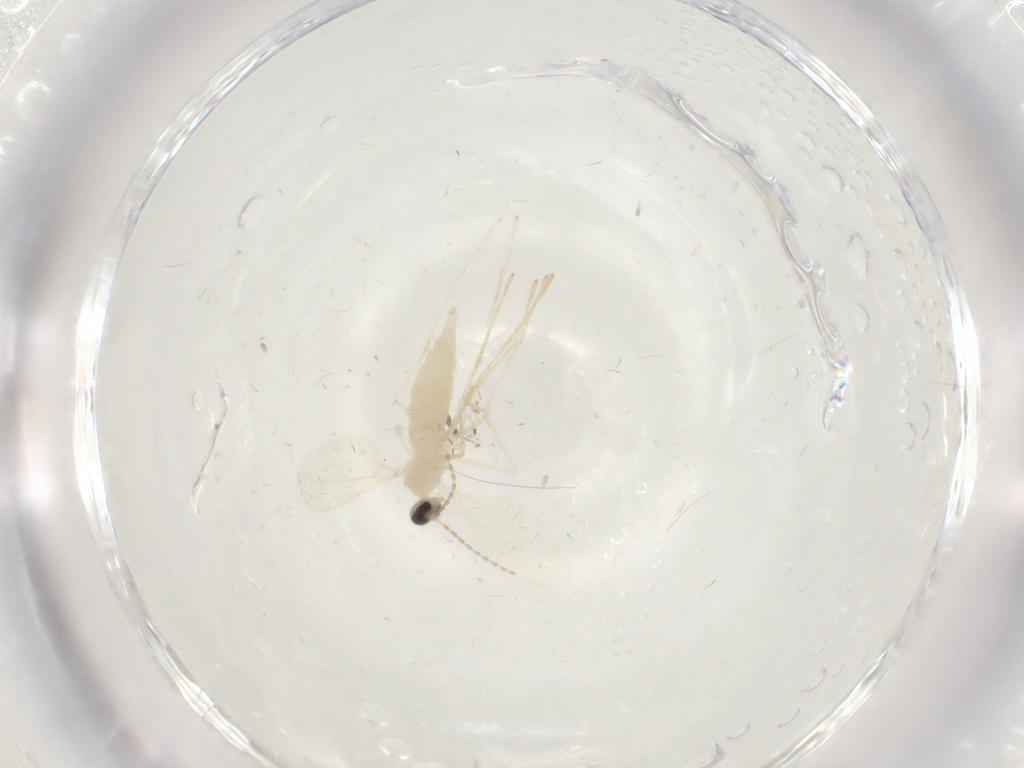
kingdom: Animalia
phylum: Arthropoda
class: Insecta
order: Diptera
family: Cecidomyiidae
